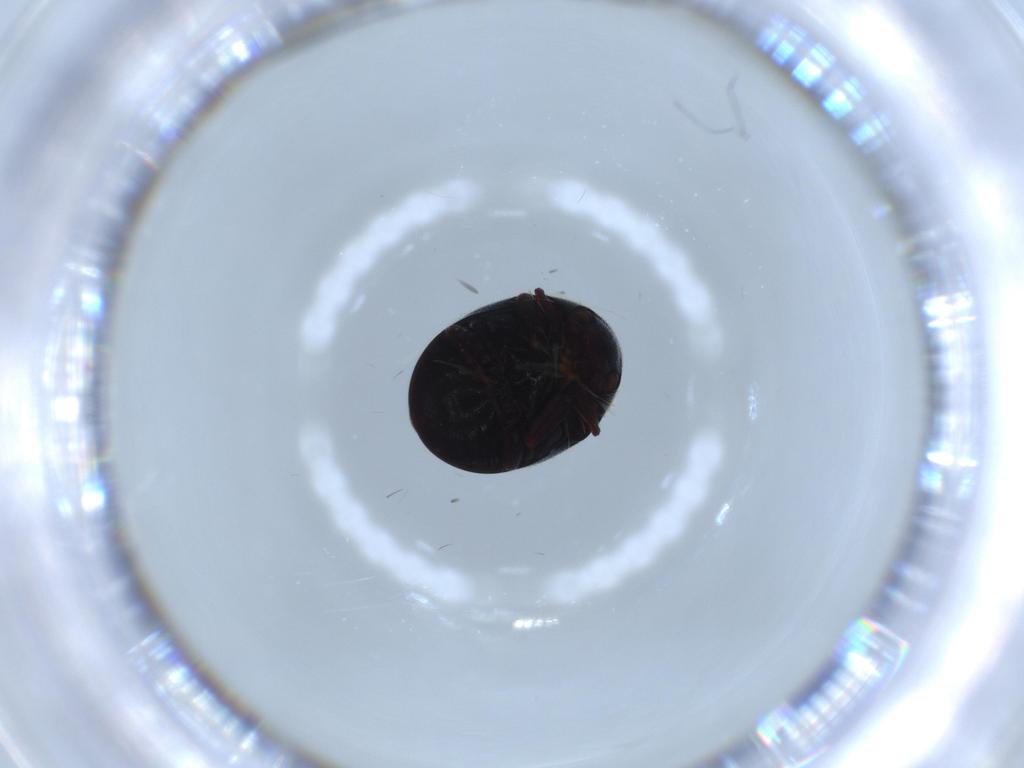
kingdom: Animalia
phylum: Arthropoda
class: Insecta
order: Coleoptera
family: Ptinidae
